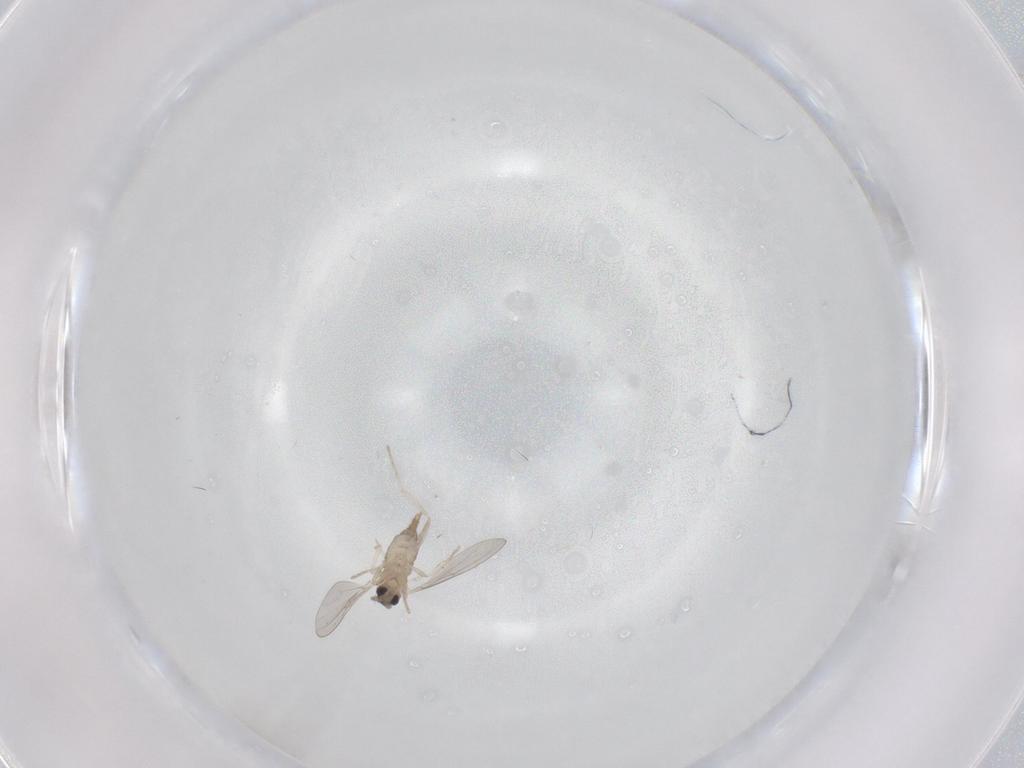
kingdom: Animalia
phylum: Arthropoda
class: Insecta
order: Diptera
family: Cecidomyiidae
